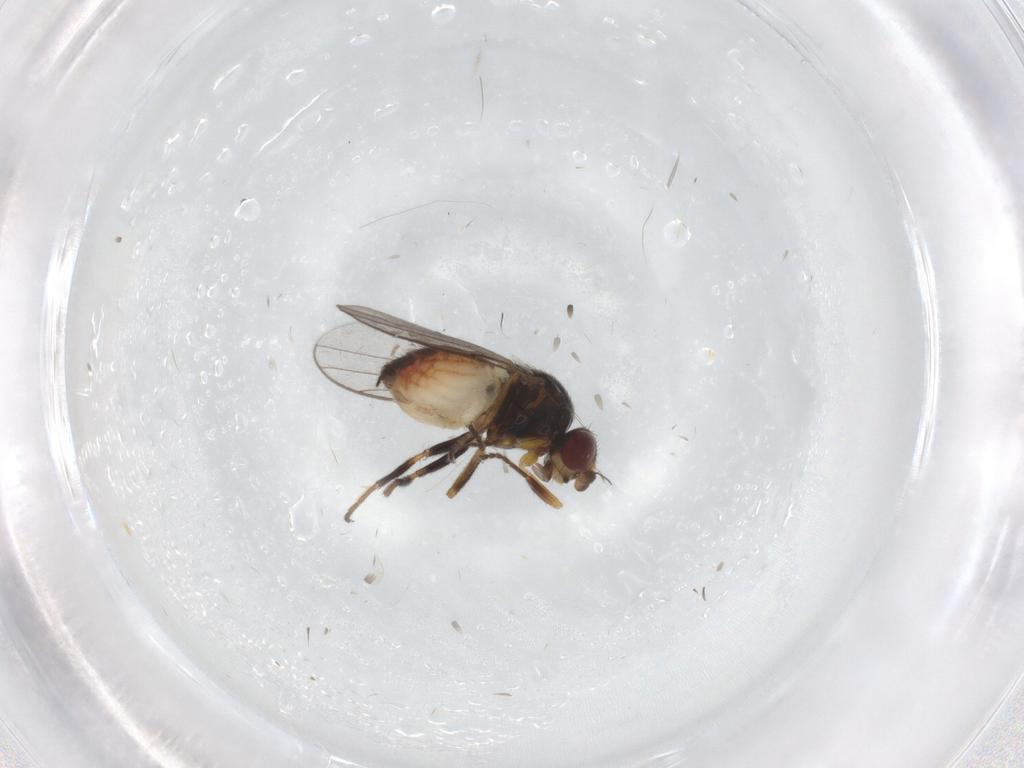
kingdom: Animalia
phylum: Arthropoda
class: Insecta
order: Diptera
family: Chloropidae
